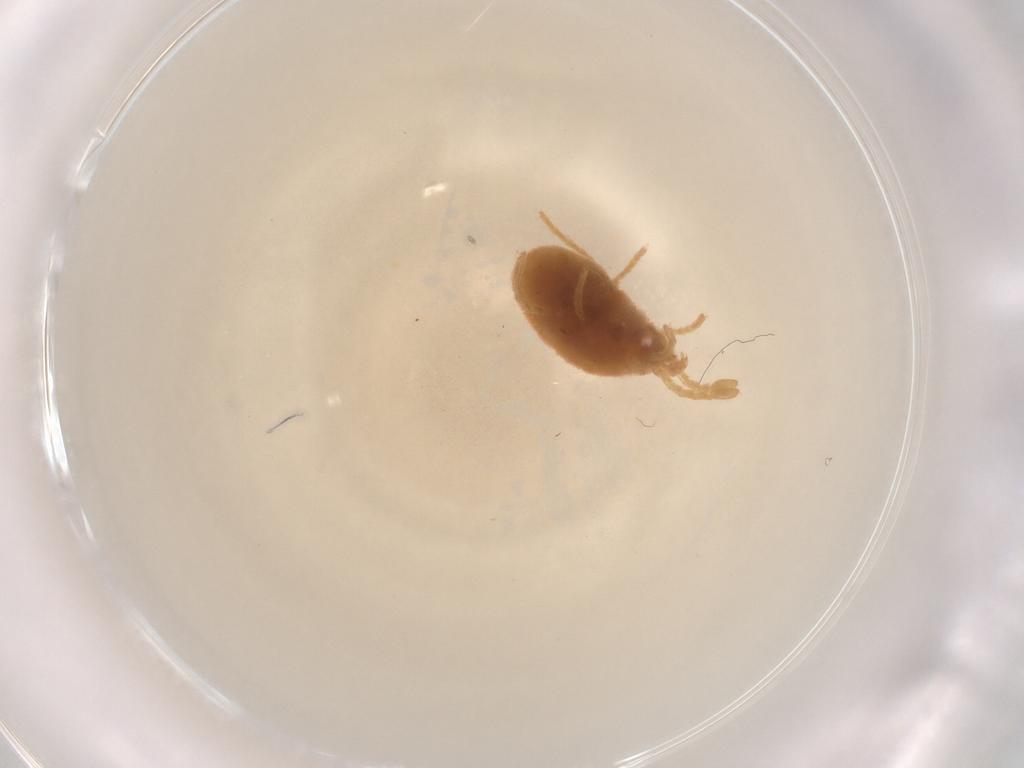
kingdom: Animalia
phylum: Arthropoda
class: Arachnida
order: Trombidiformes
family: Microtrombidiidae
